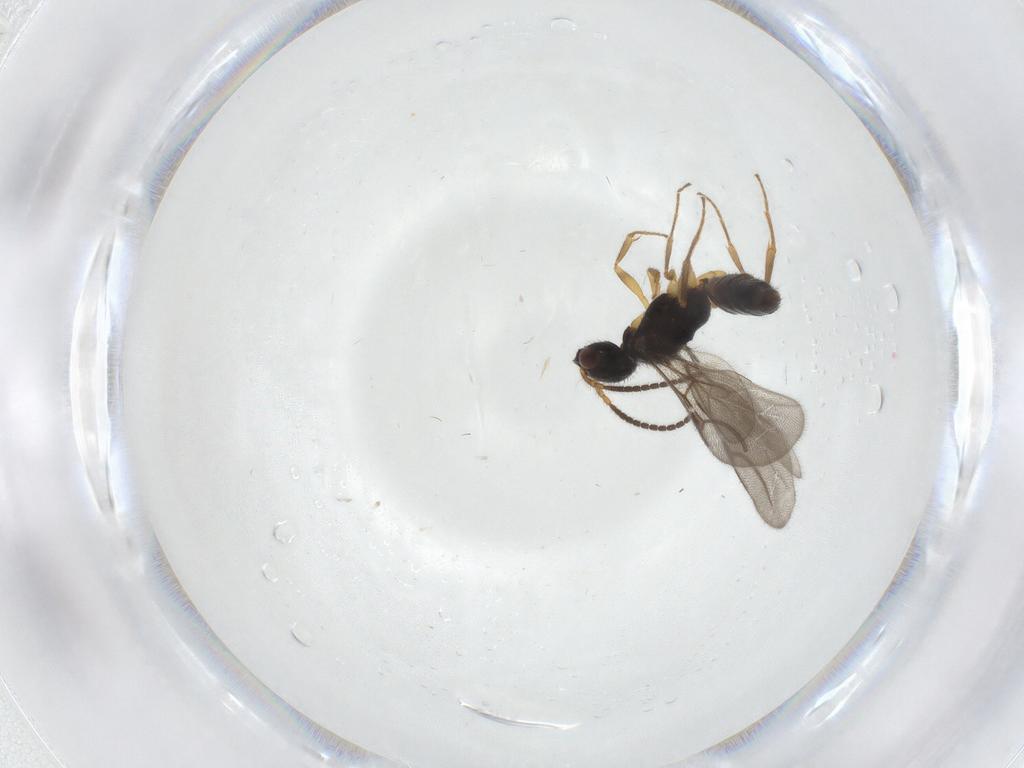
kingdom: Animalia
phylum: Arthropoda
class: Insecta
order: Hymenoptera
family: Bethylidae
